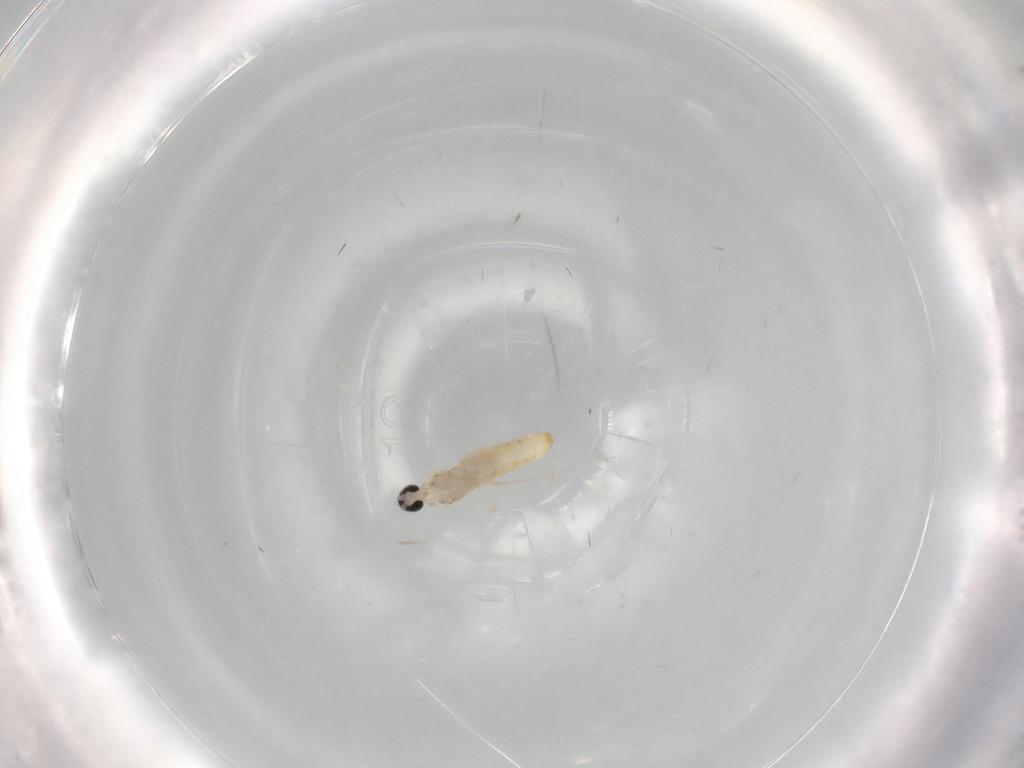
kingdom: Animalia
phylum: Arthropoda
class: Insecta
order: Diptera
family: Cecidomyiidae
